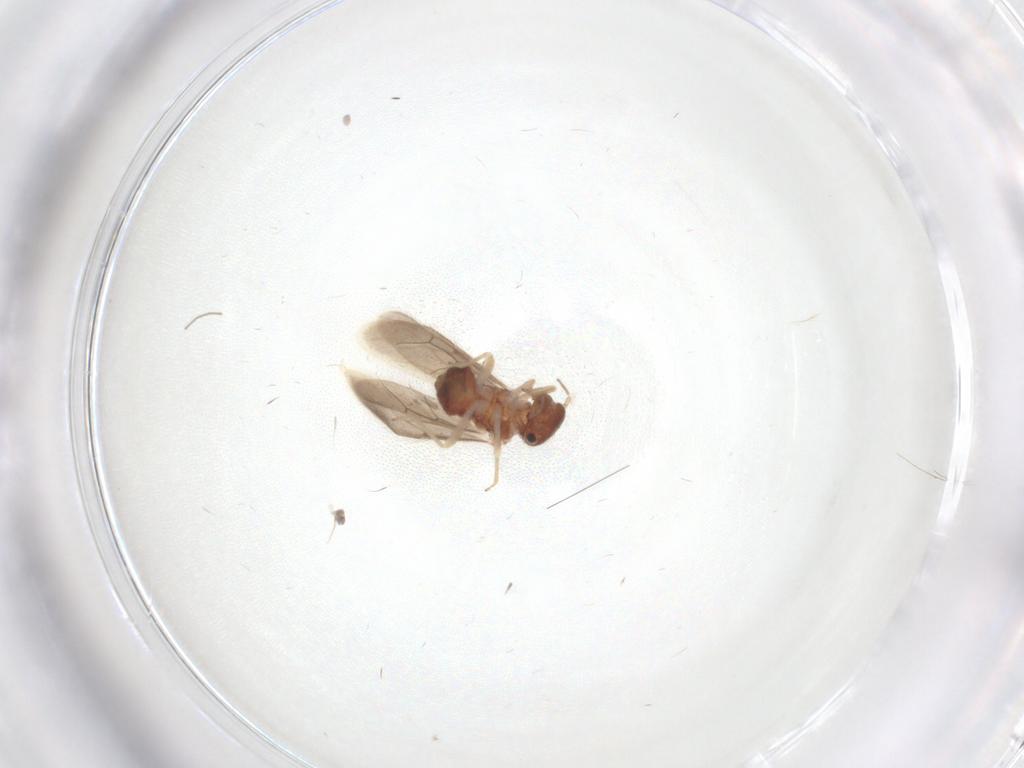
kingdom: Animalia
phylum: Arthropoda
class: Insecta
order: Psocodea
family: Archipsocidae
